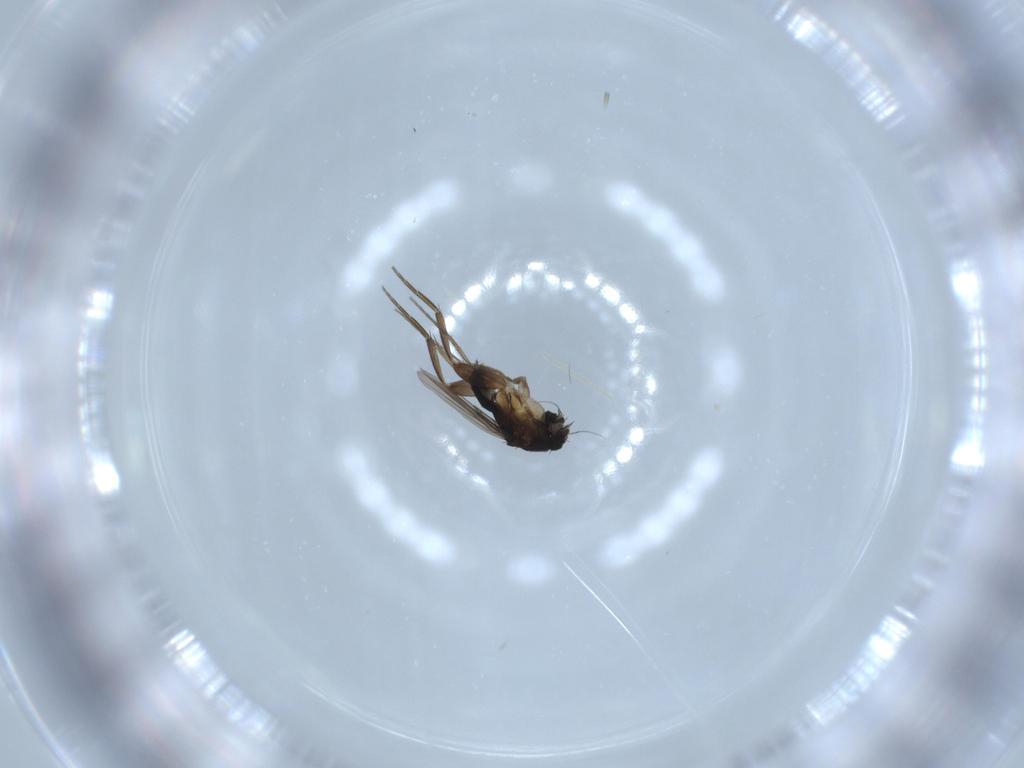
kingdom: Animalia
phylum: Arthropoda
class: Insecta
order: Diptera
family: Phoridae
